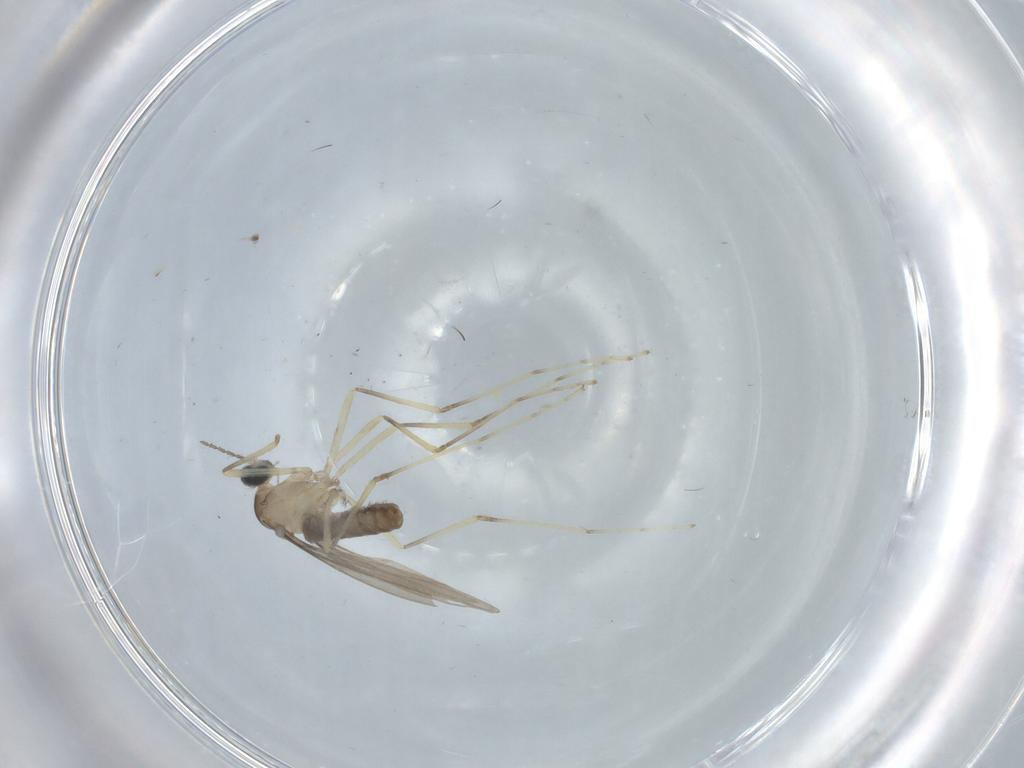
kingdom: Animalia
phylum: Arthropoda
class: Insecta
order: Diptera
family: Cecidomyiidae
